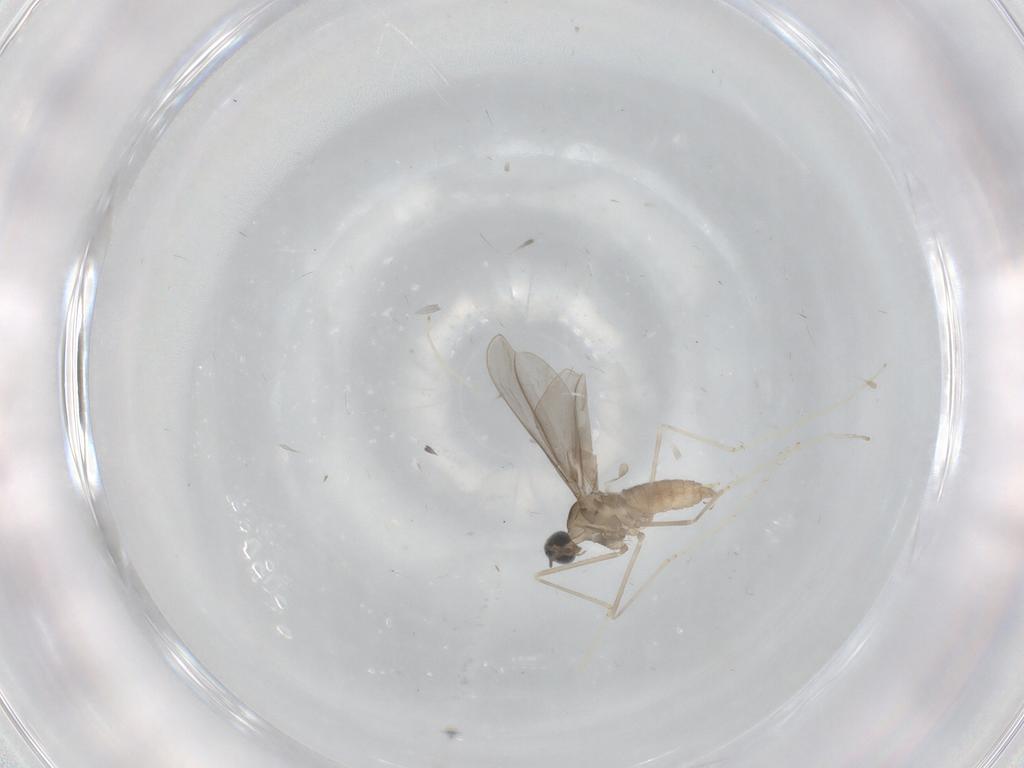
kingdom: Animalia
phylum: Arthropoda
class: Insecta
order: Diptera
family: Cecidomyiidae
